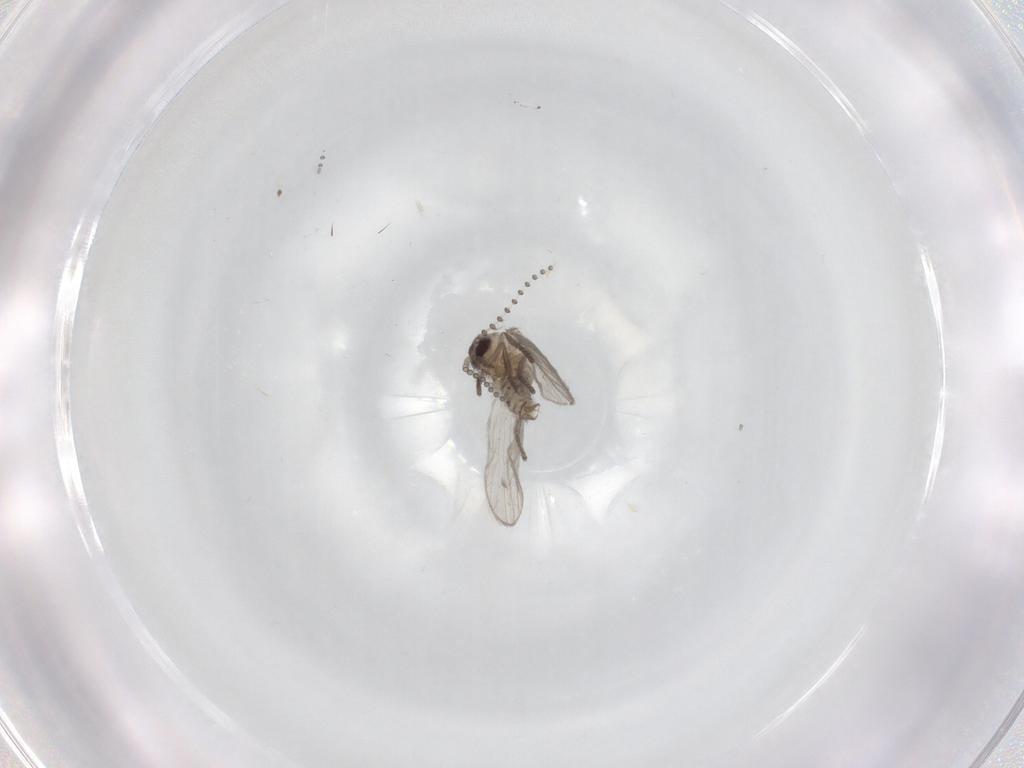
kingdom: Animalia
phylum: Arthropoda
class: Insecta
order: Diptera
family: Psychodidae
